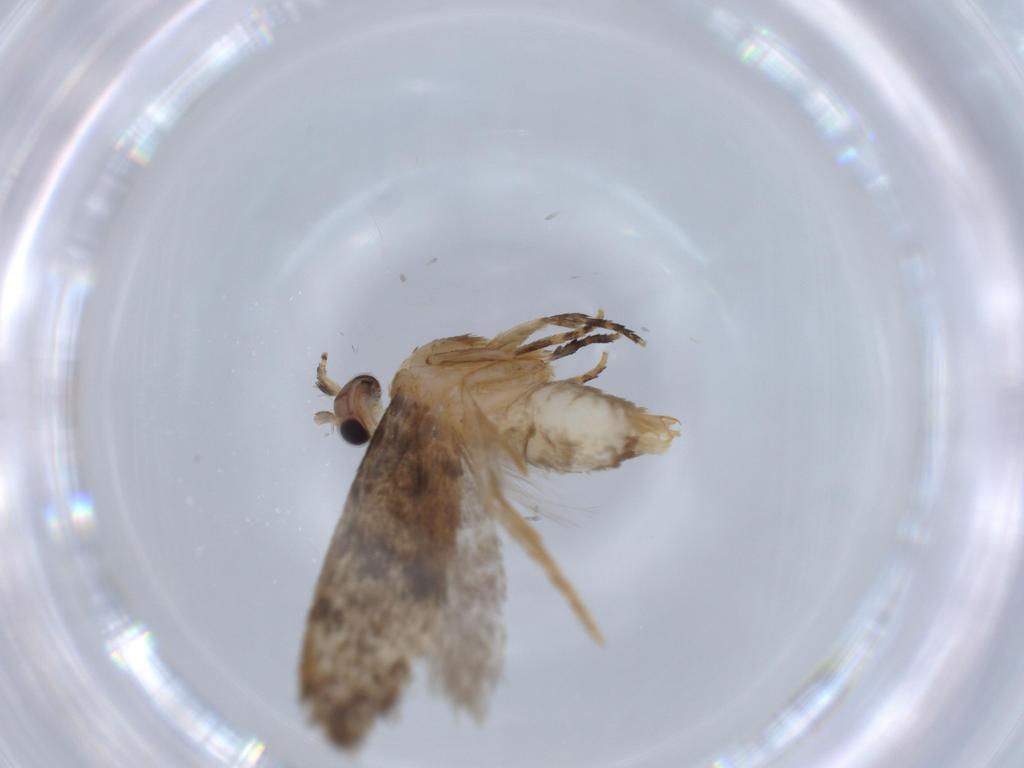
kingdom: Animalia
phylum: Arthropoda
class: Insecta
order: Lepidoptera
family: Tineidae
